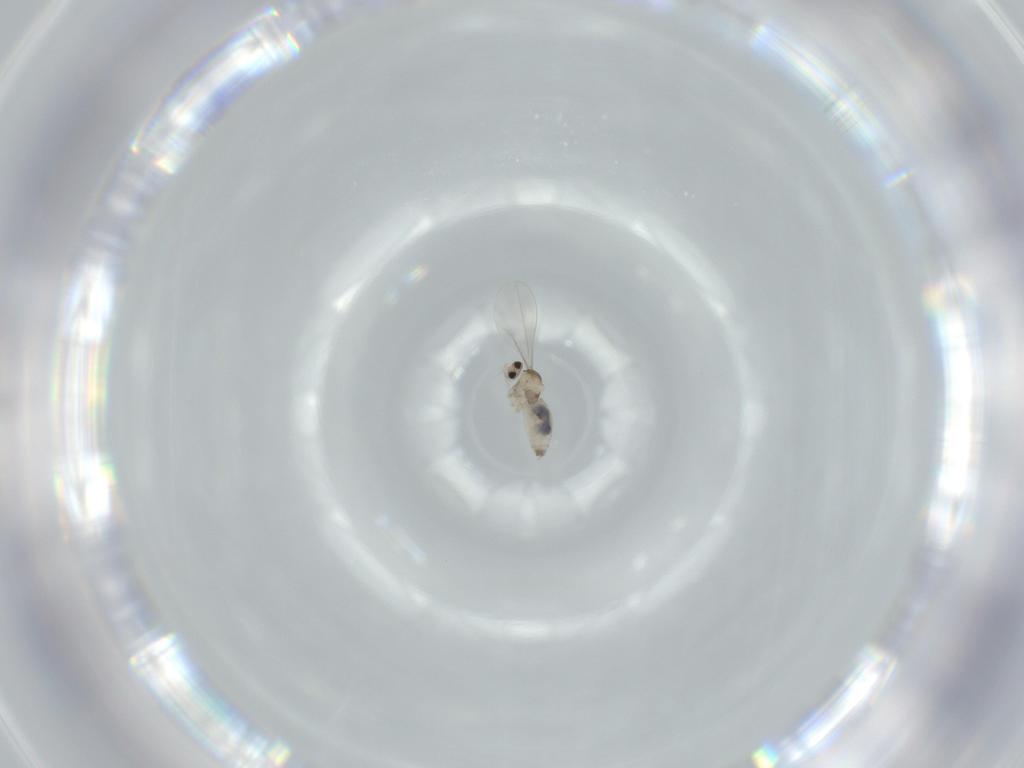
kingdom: Animalia
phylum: Arthropoda
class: Insecta
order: Diptera
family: Cecidomyiidae
